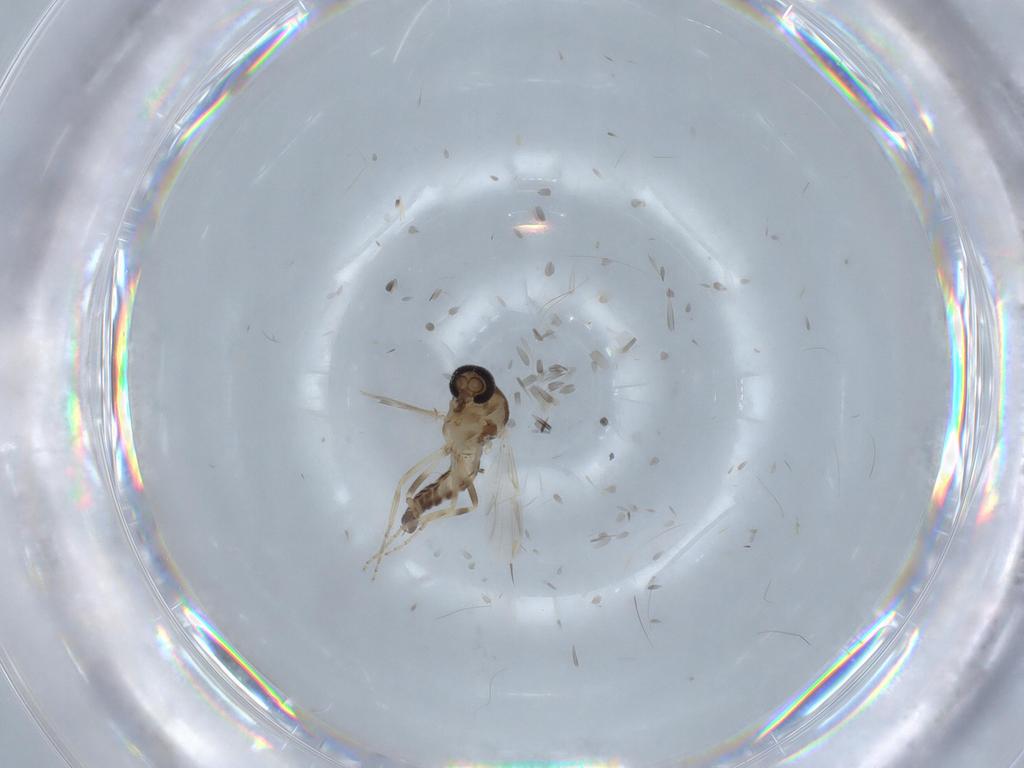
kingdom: Animalia
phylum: Arthropoda
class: Insecta
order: Diptera
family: Ceratopogonidae
